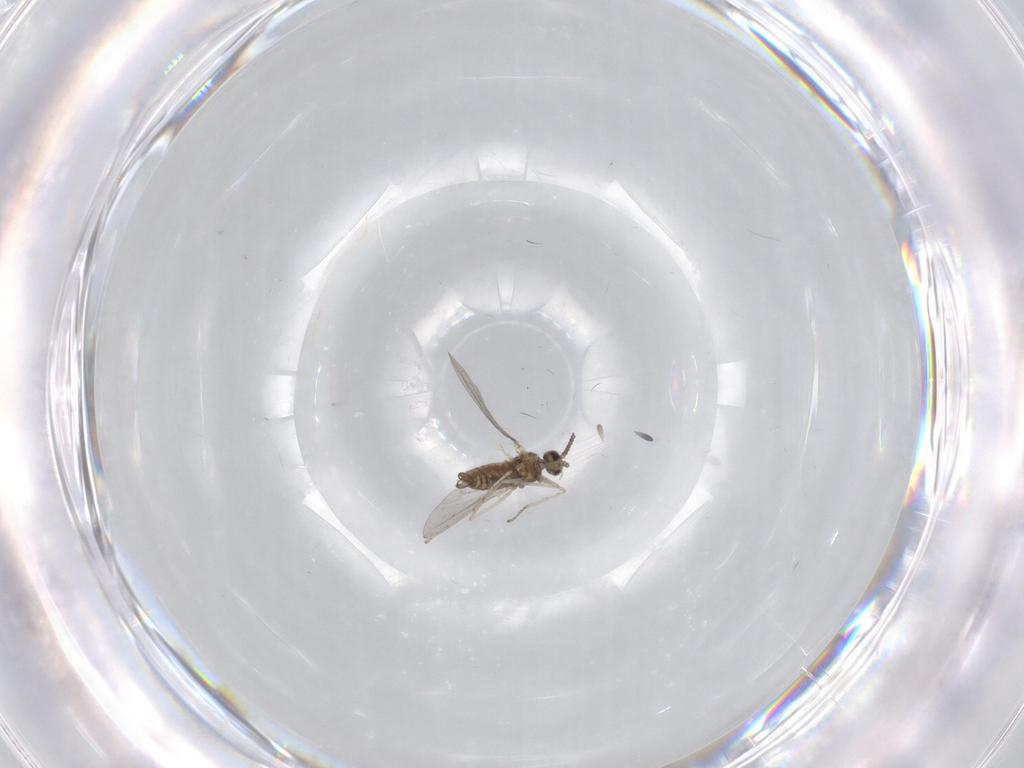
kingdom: Animalia
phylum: Arthropoda
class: Insecta
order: Diptera
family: Cecidomyiidae
